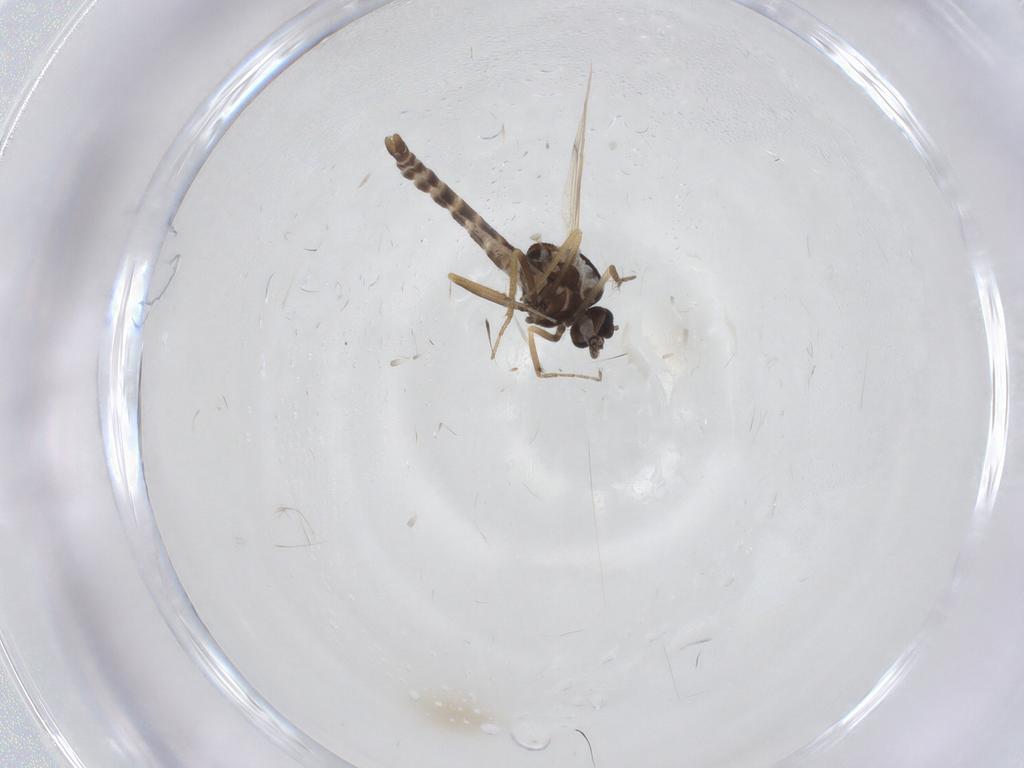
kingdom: Animalia
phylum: Arthropoda
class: Insecta
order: Diptera
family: Ceratopogonidae
